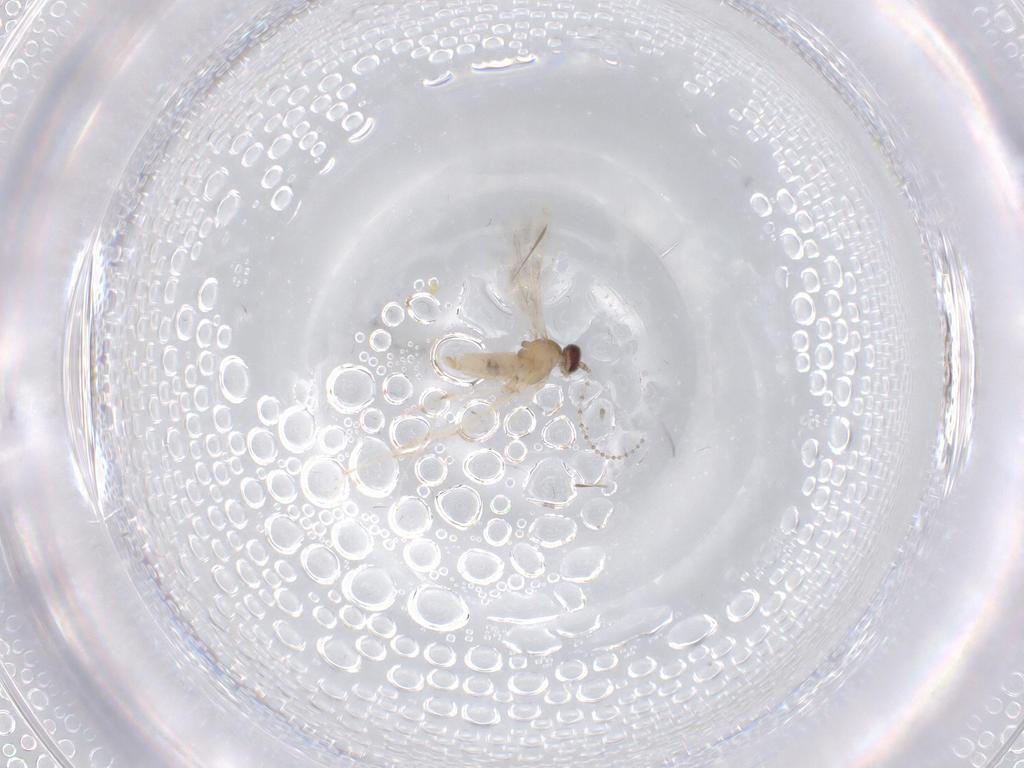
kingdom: Animalia
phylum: Arthropoda
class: Insecta
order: Diptera
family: Limoniidae
